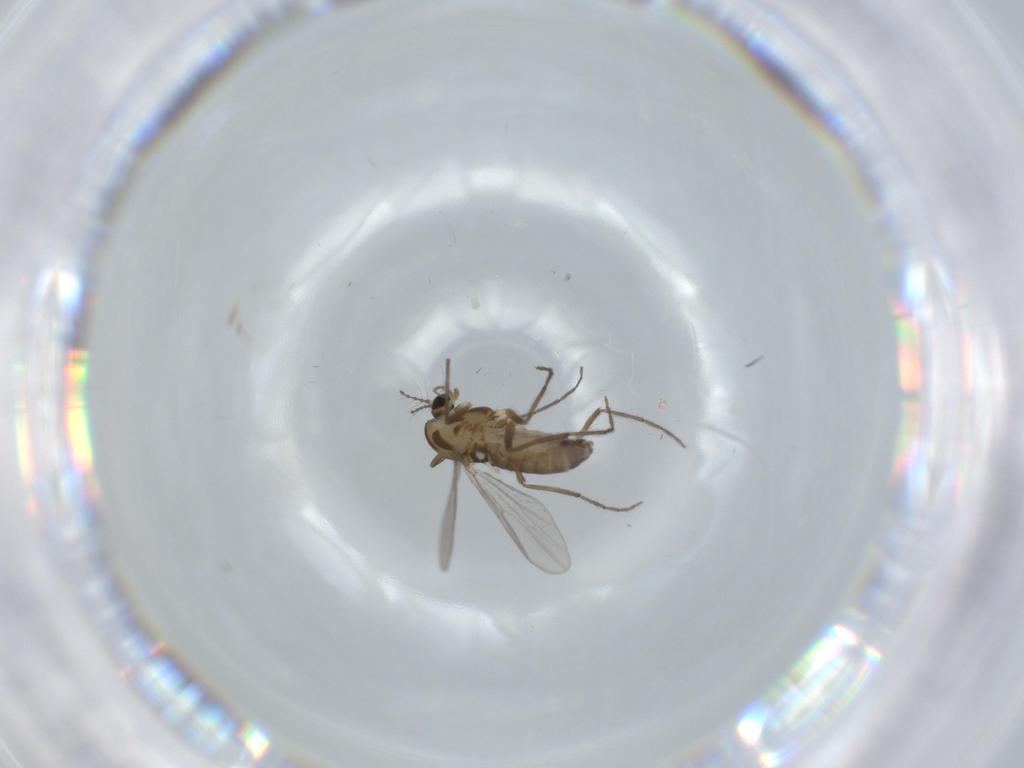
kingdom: Animalia
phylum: Arthropoda
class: Insecta
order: Diptera
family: Chironomidae
